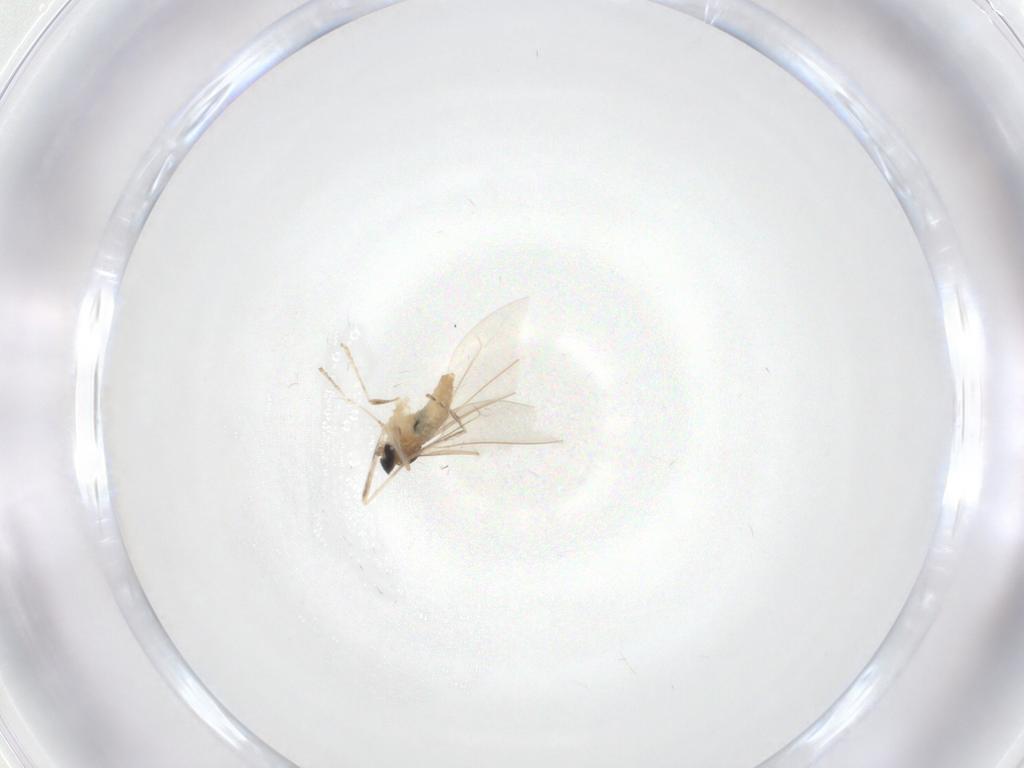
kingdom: Animalia
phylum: Arthropoda
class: Insecta
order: Diptera
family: Cecidomyiidae
